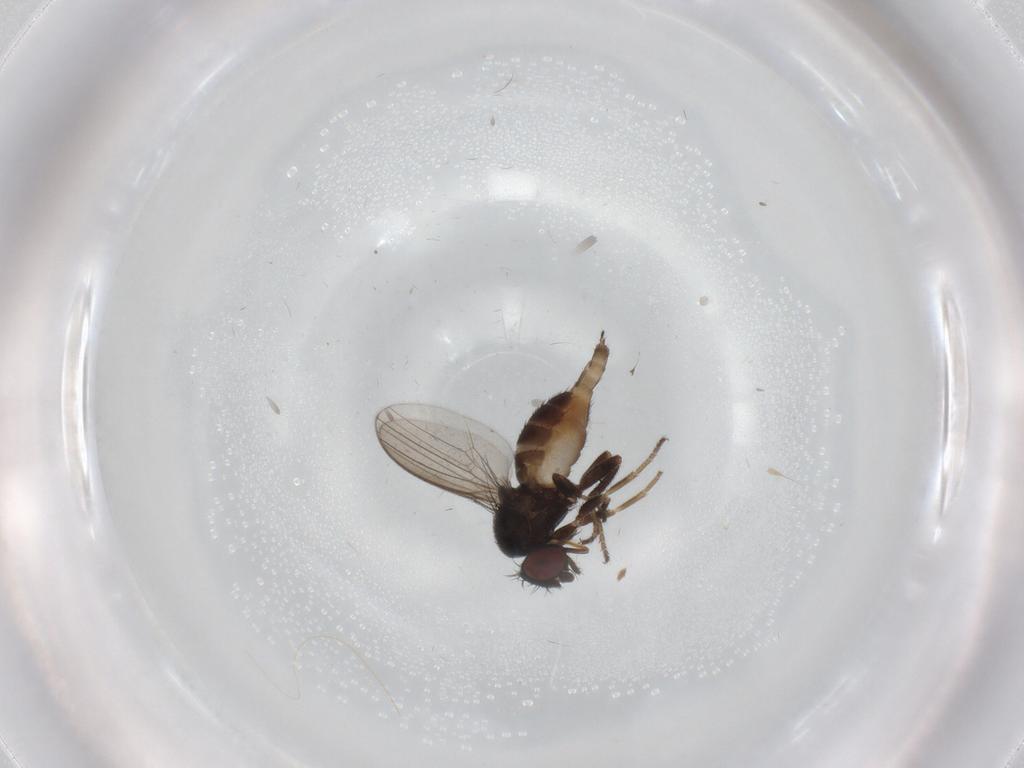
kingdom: Animalia
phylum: Arthropoda
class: Insecta
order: Diptera
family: Milichiidae
